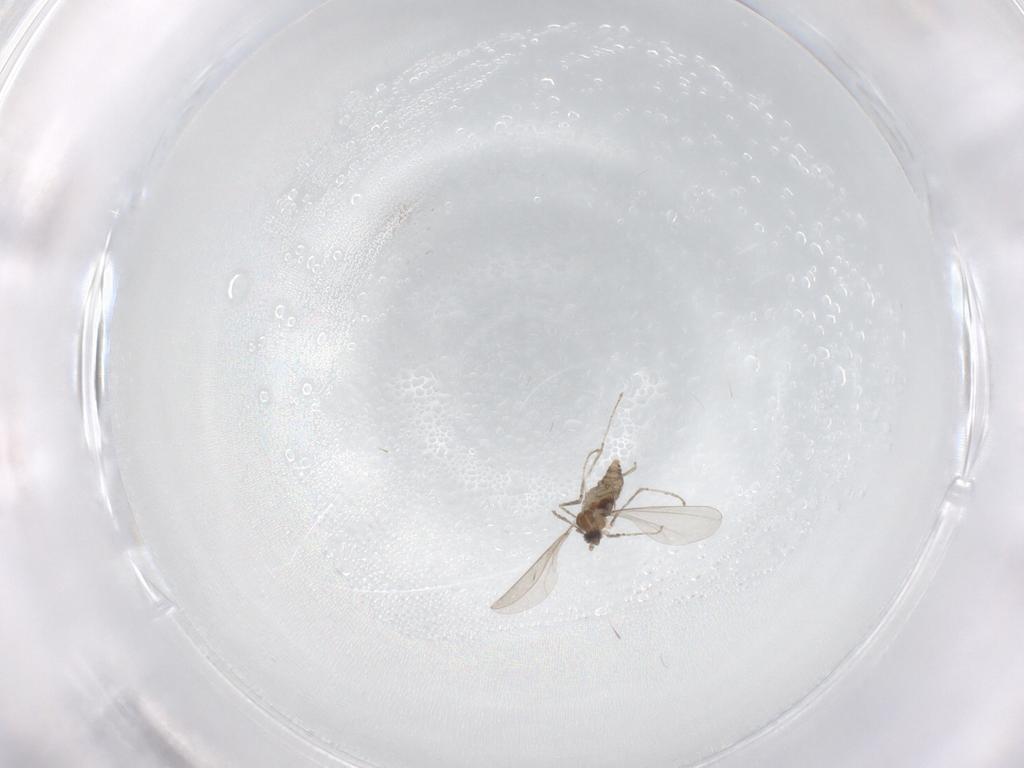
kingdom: Animalia
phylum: Arthropoda
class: Insecta
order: Diptera
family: Cecidomyiidae
